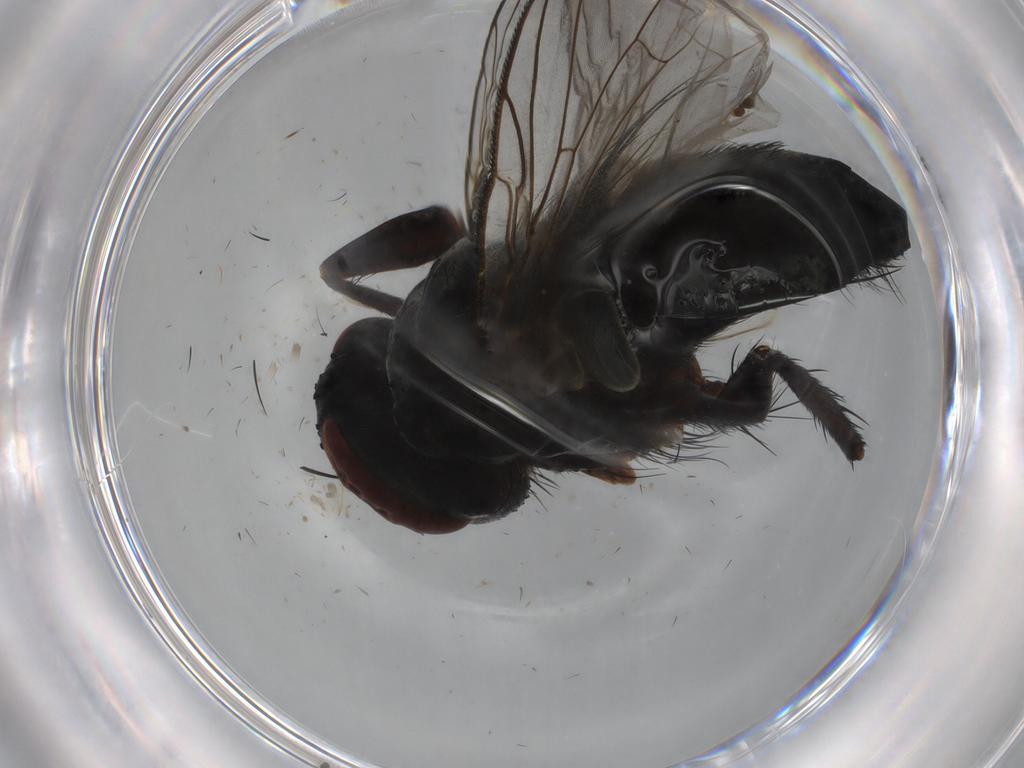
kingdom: Animalia
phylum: Arthropoda
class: Insecta
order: Diptera
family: Tachinidae
